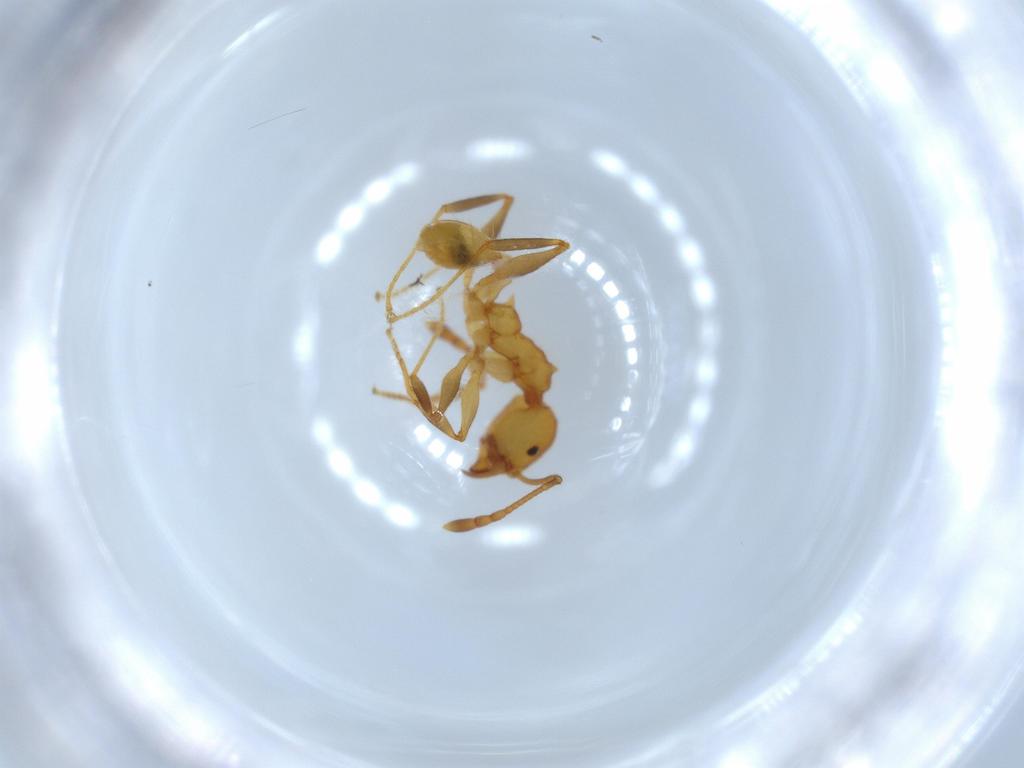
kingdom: Animalia
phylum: Arthropoda
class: Insecta
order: Hymenoptera
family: Formicidae
